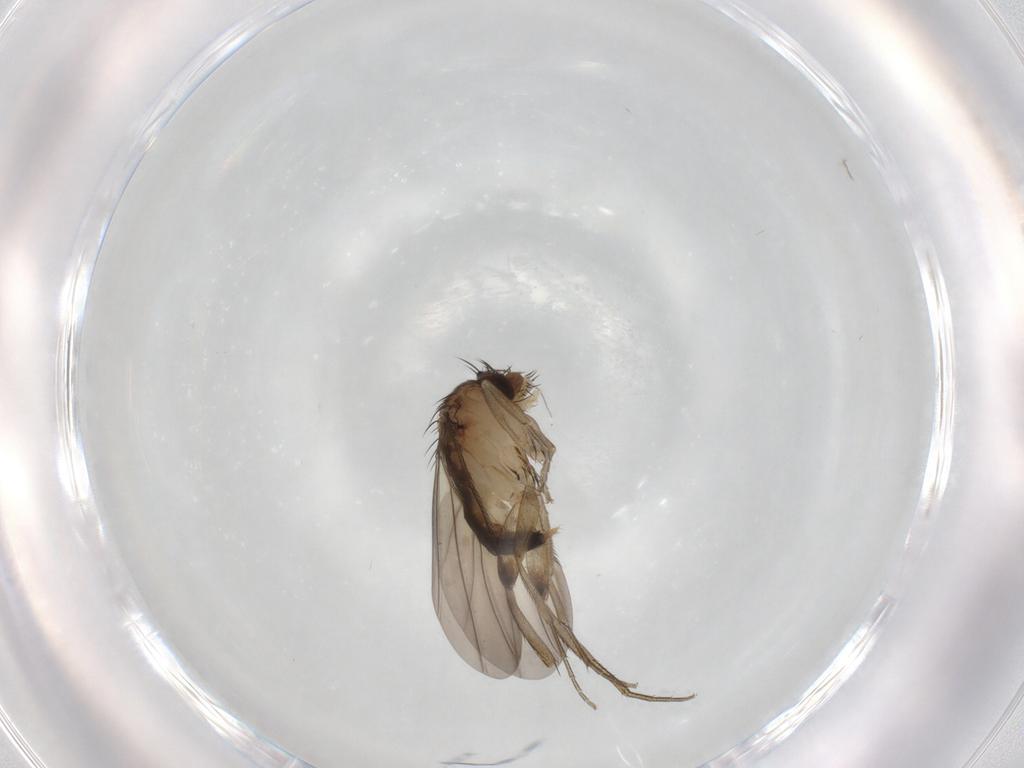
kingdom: Animalia
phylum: Arthropoda
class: Insecta
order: Diptera
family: Phoridae
